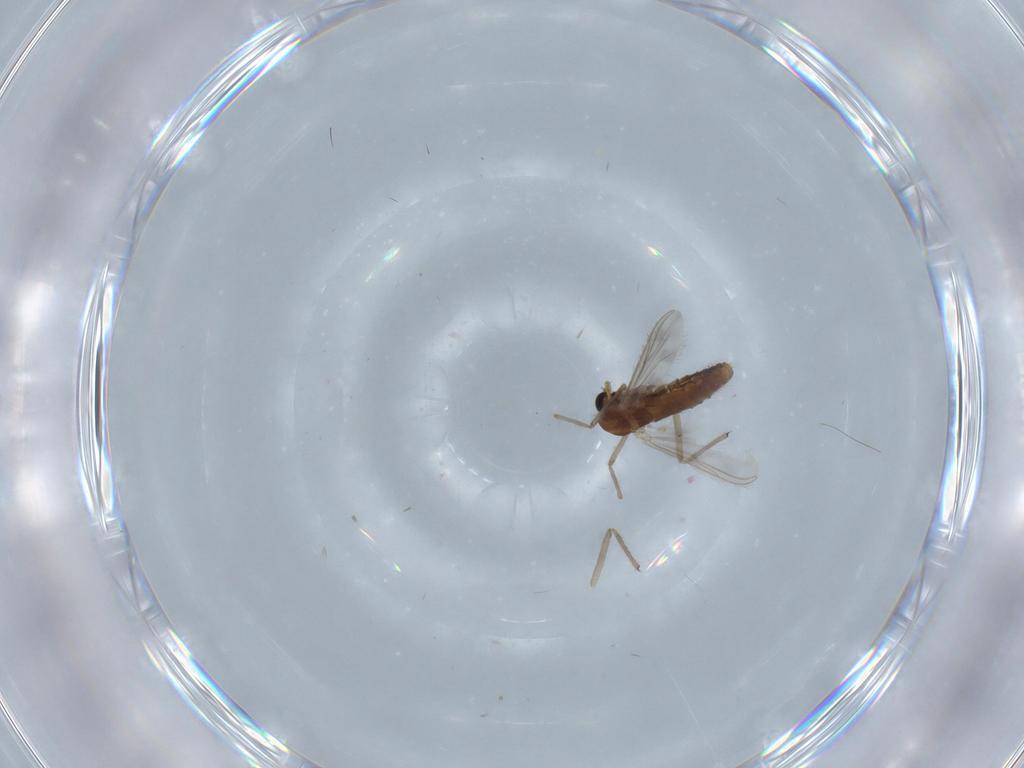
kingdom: Animalia
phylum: Arthropoda
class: Insecta
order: Diptera
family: Chironomidae
